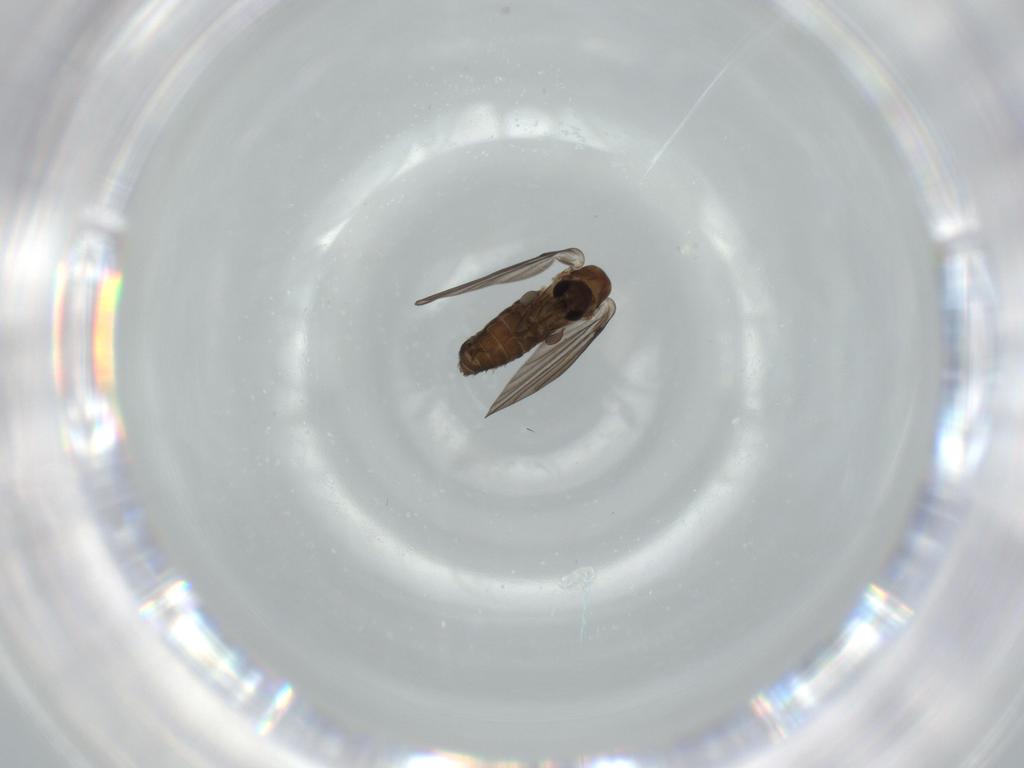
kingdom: Animalia
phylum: Arthropoda
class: Insecta
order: Diptera
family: Psychodidae
